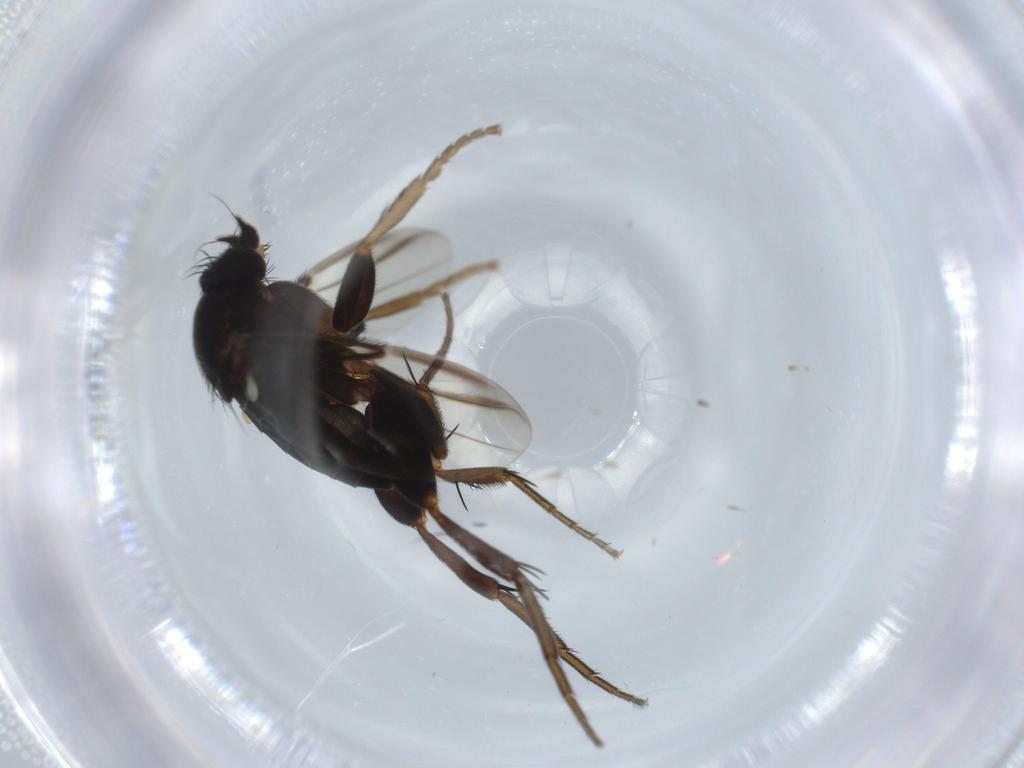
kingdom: Animalia
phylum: Arthropoda
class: Insecta
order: Diptera
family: Phoridae
